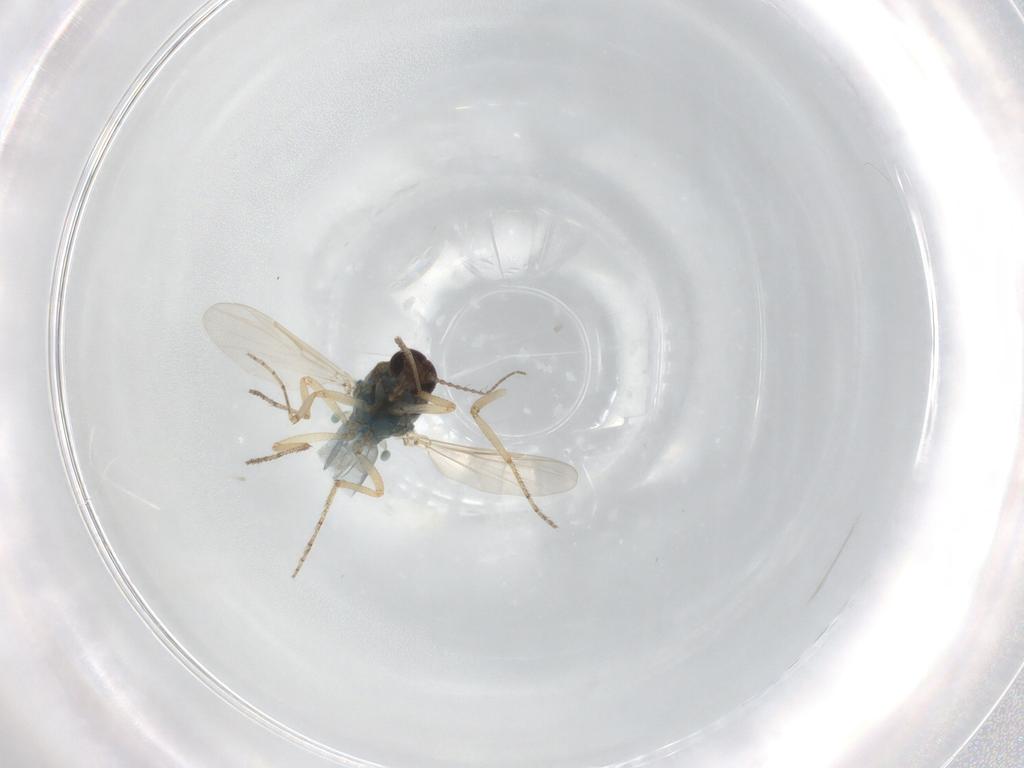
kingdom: Animalia
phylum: Arthropoda
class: Insecta
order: Diptera
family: Ceratopogonidae
